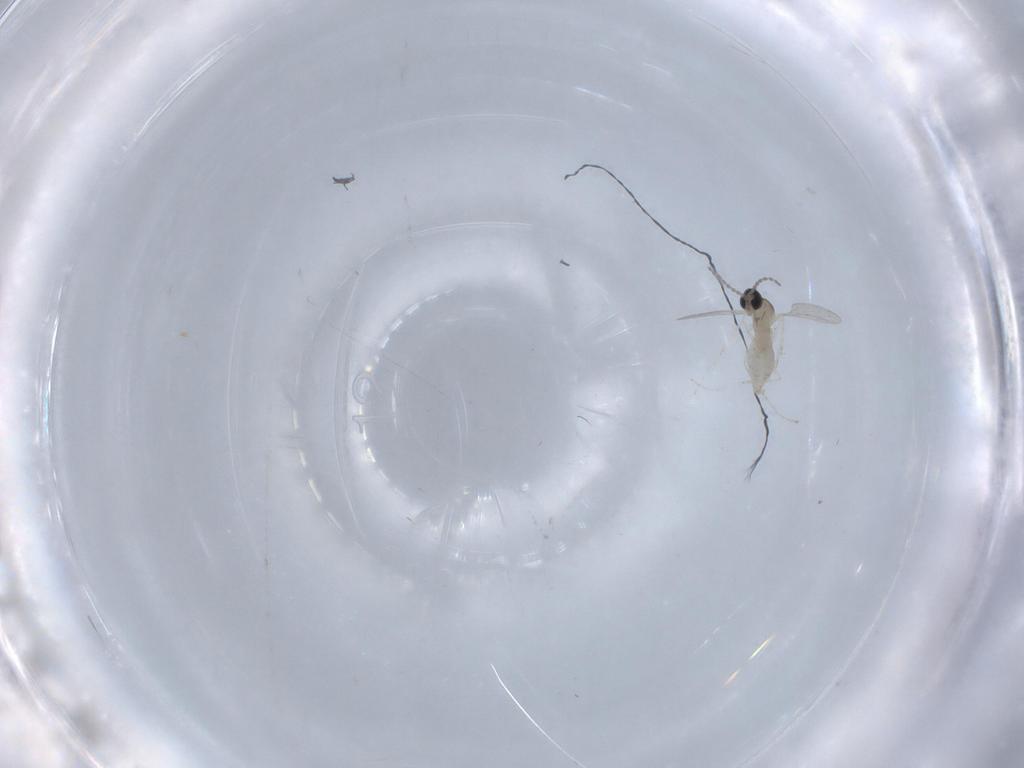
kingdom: Animalia
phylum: Arthropoda
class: Insecta
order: Diptera
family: Cecidomyiidae
